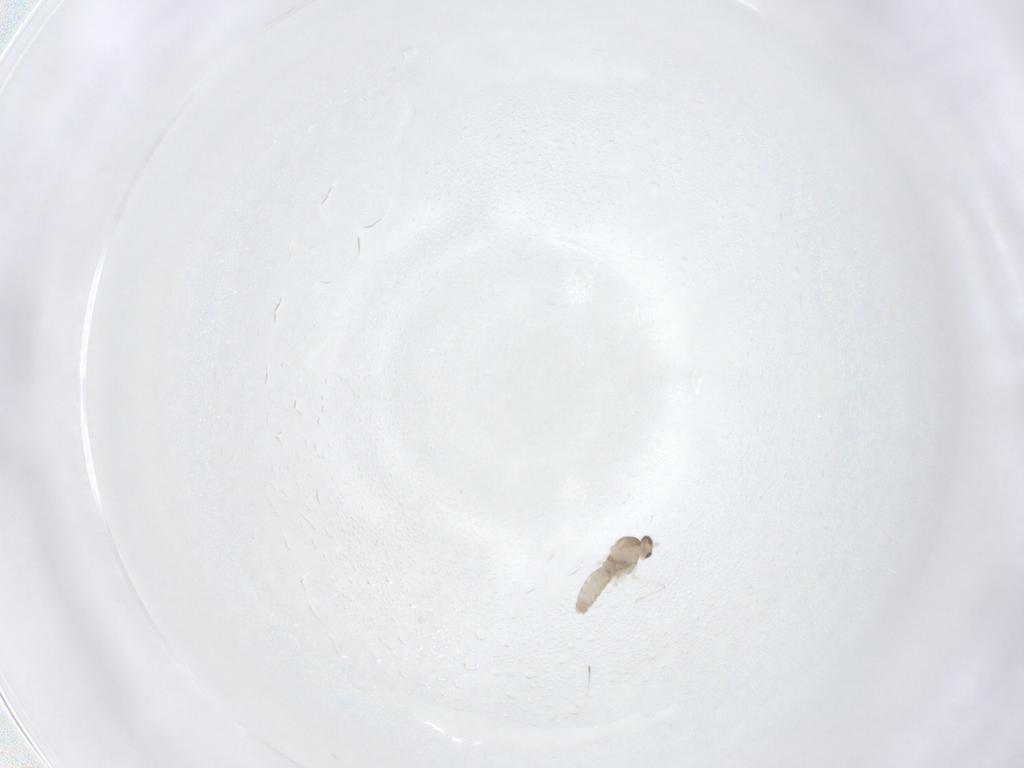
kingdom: Animalia
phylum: Arthropoda
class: Insecta
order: Diptera
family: Cecidomyiidae
